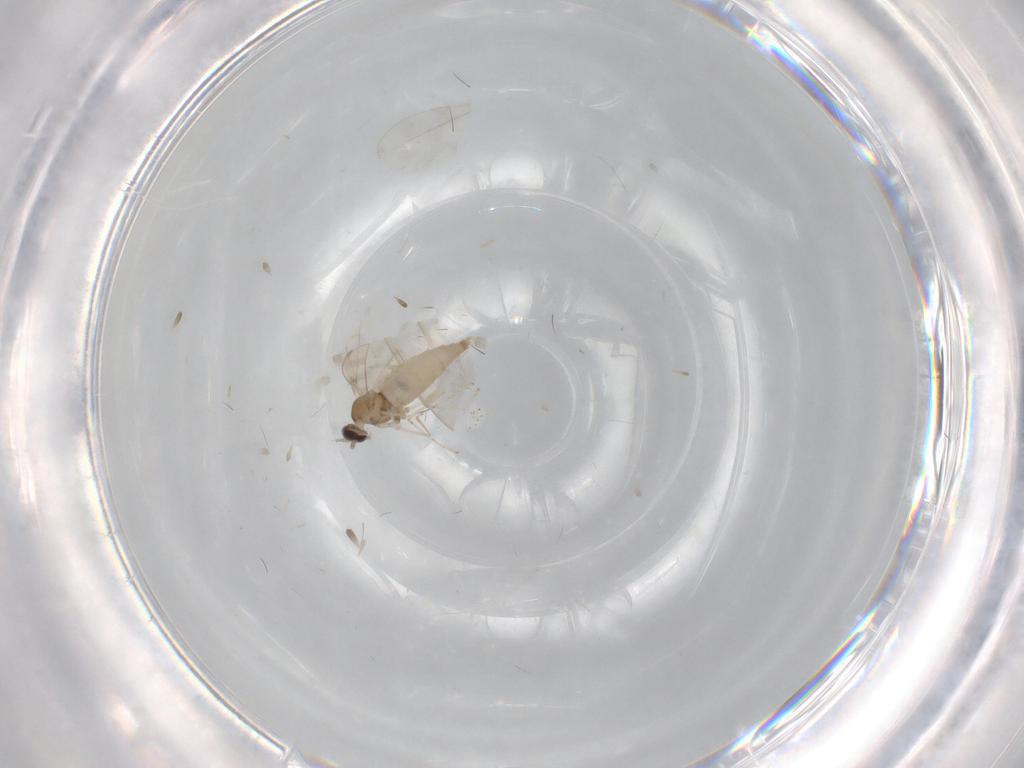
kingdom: Animalia
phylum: Arthropoda
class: Insecta
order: Diptera
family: Cecidomyiidae
